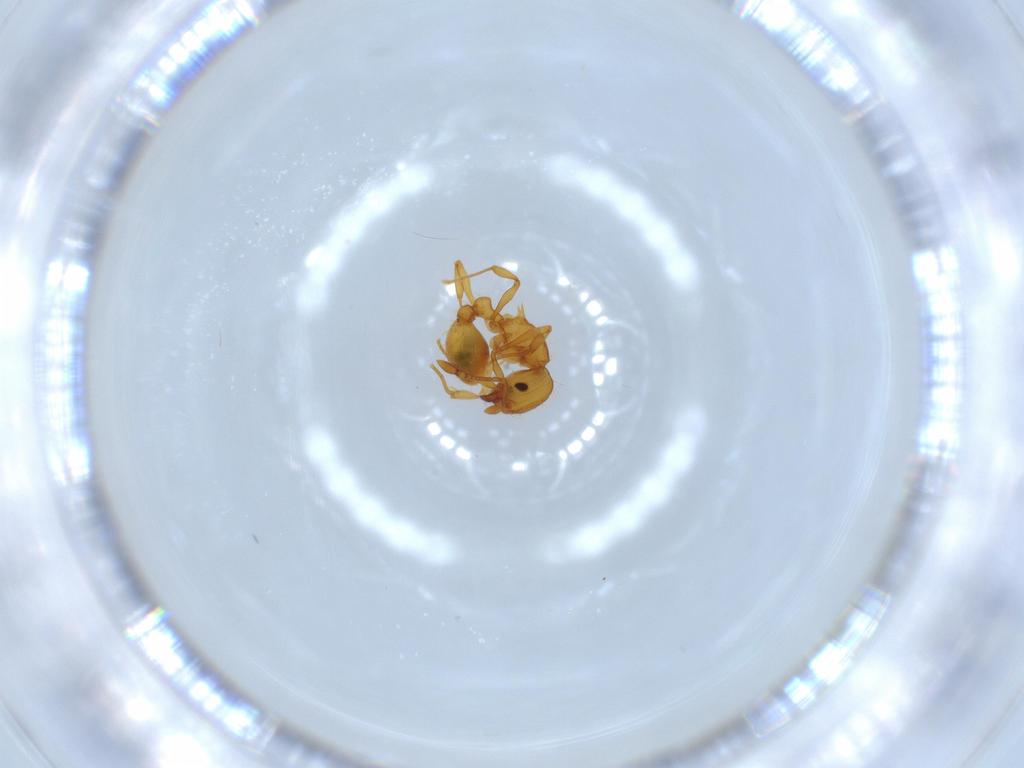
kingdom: Animalia
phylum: Arthropoda
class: Insecta
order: Hymenoptera
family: Formicidae
